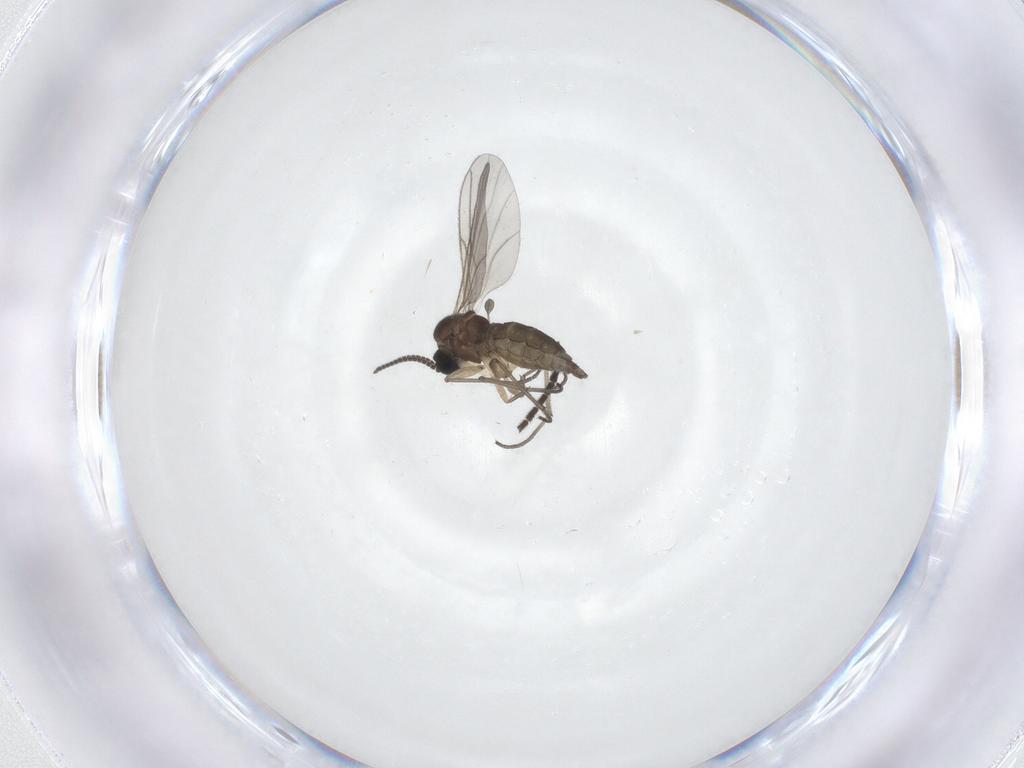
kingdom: Animalia
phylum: Arthropoda
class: Insecta
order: Diptera
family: Sciaridae
